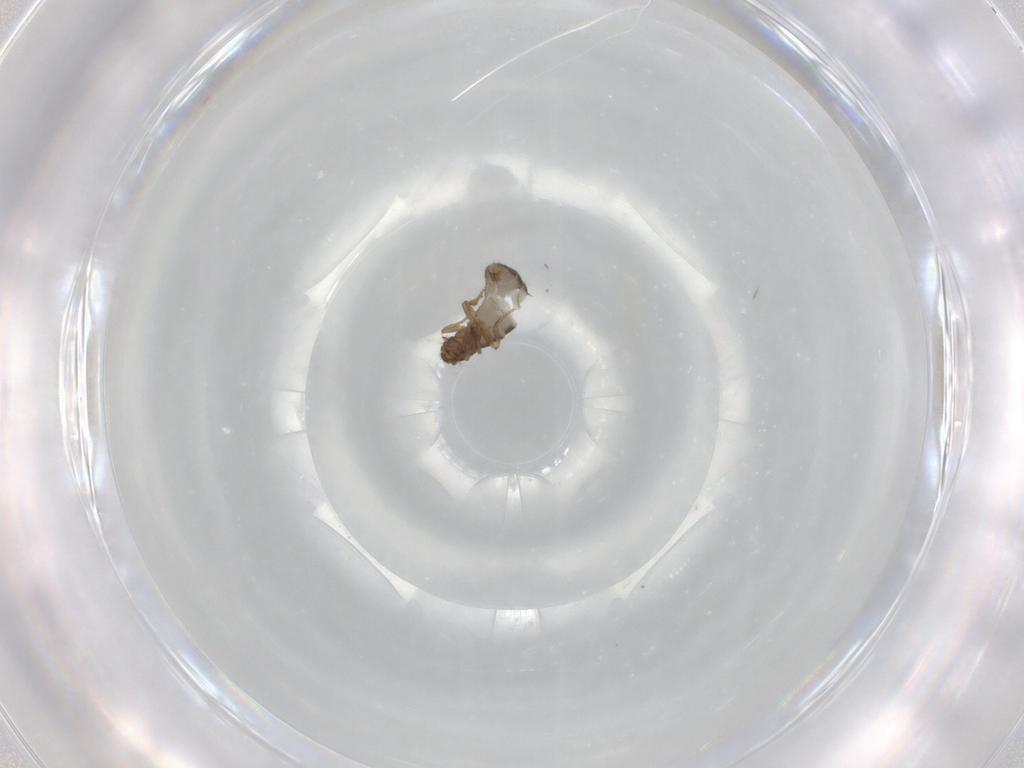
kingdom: Animalia
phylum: Arthropoda
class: Insecta
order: Diptera
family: Phoridae
